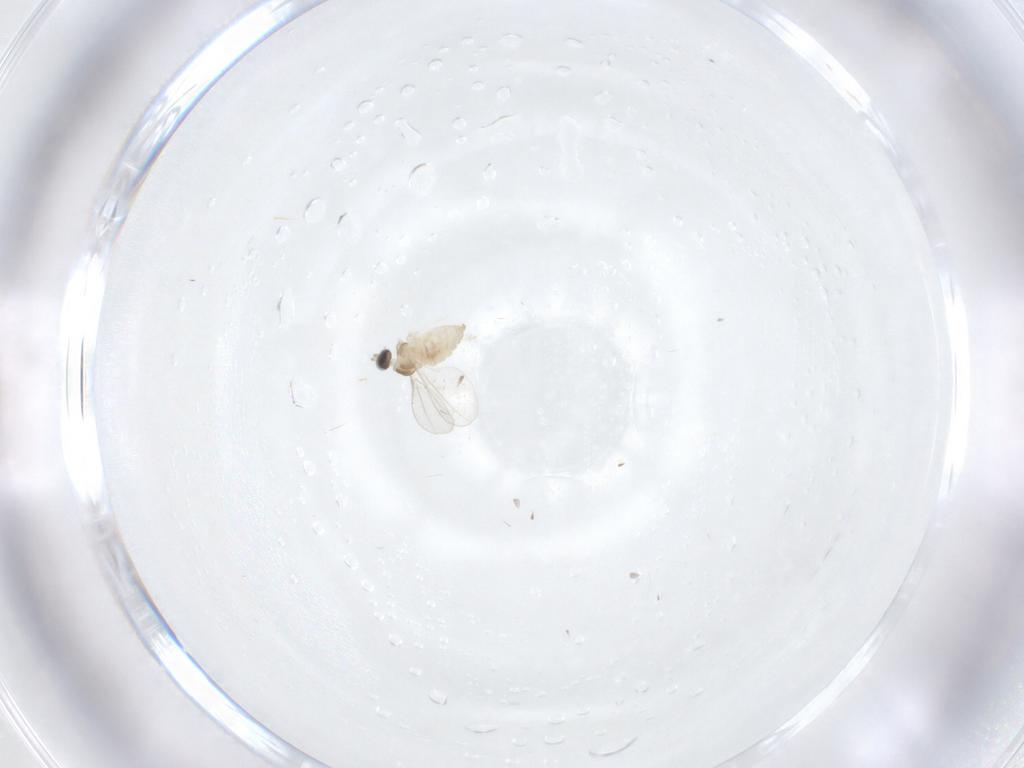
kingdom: Animalia
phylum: Arthropoda
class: Insecta
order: Diptera
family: Cecidomyiidae
